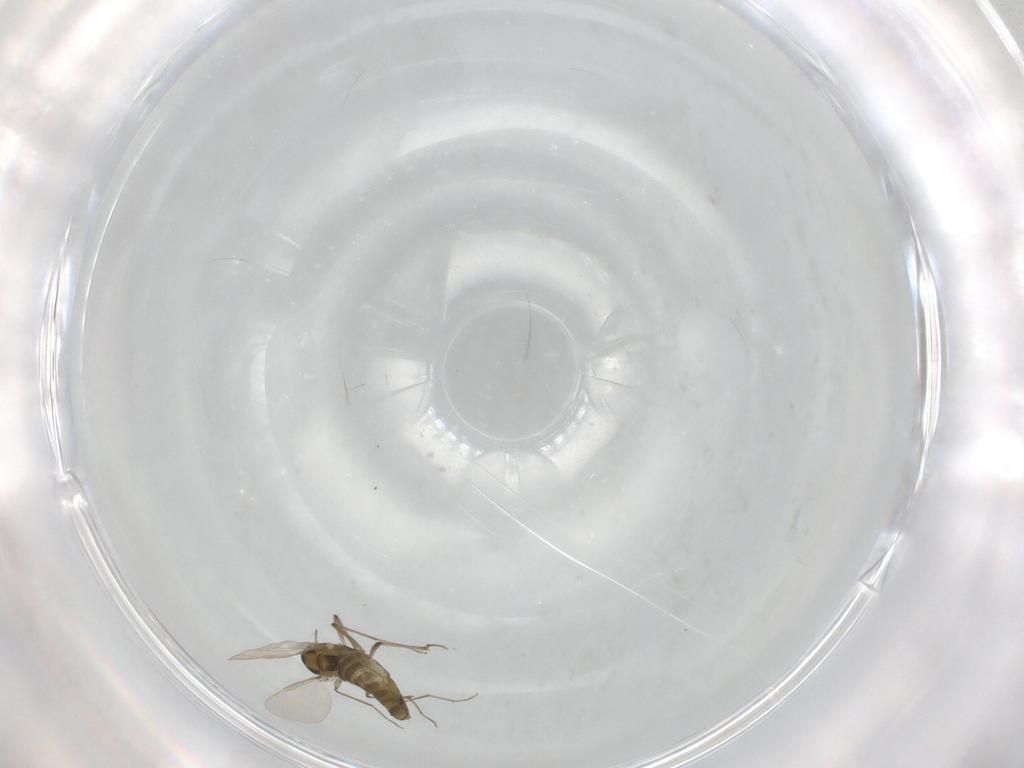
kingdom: Animalia
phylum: Arthropoda
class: Insecta
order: Diptera
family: Chironomidae
